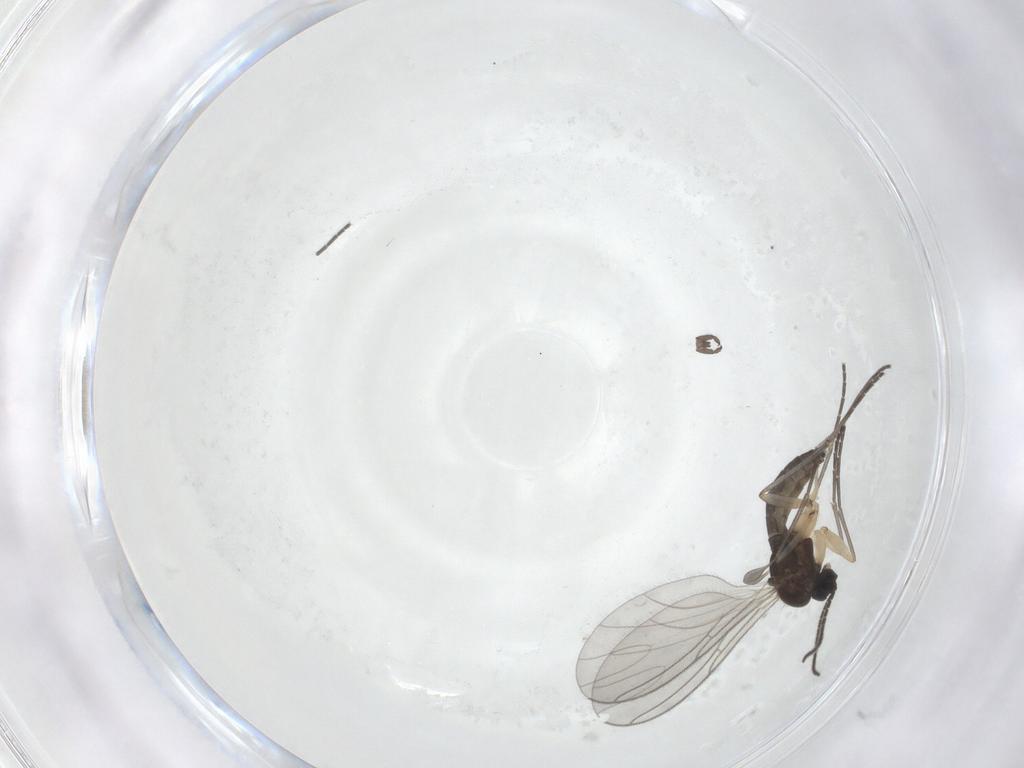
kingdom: Animalia
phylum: Arthropoda
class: Insecta
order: Diptera
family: Sciaridae
